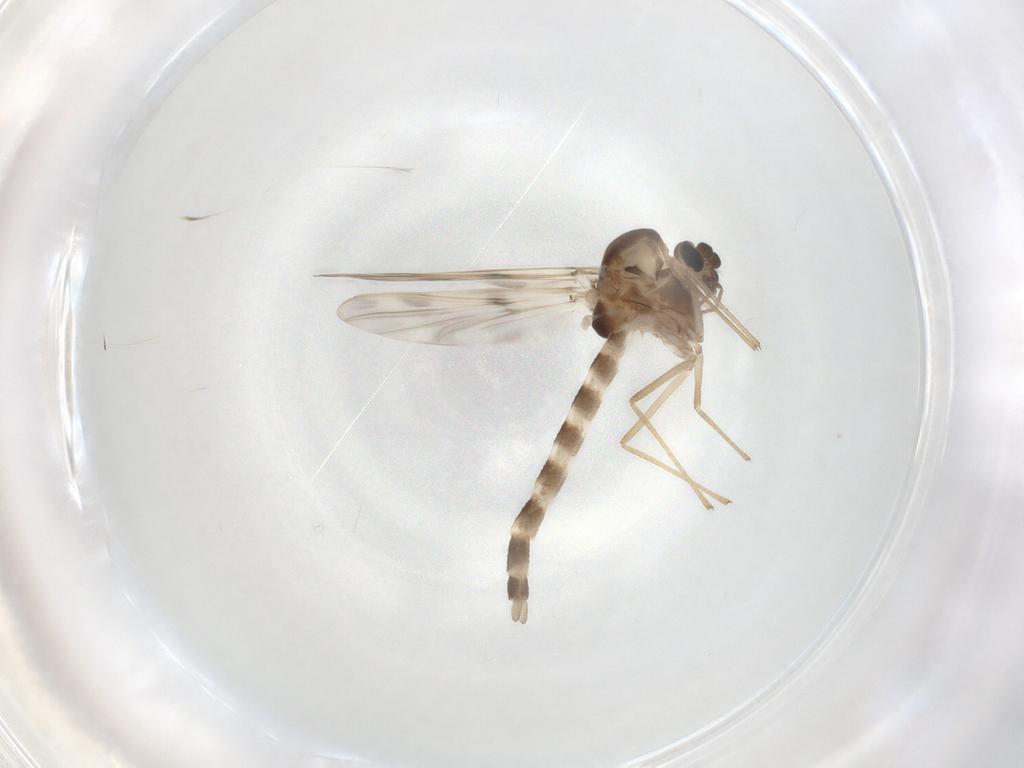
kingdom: Animalia
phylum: Arthropoda
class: Insecta
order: Diptera
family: Chironomidae
